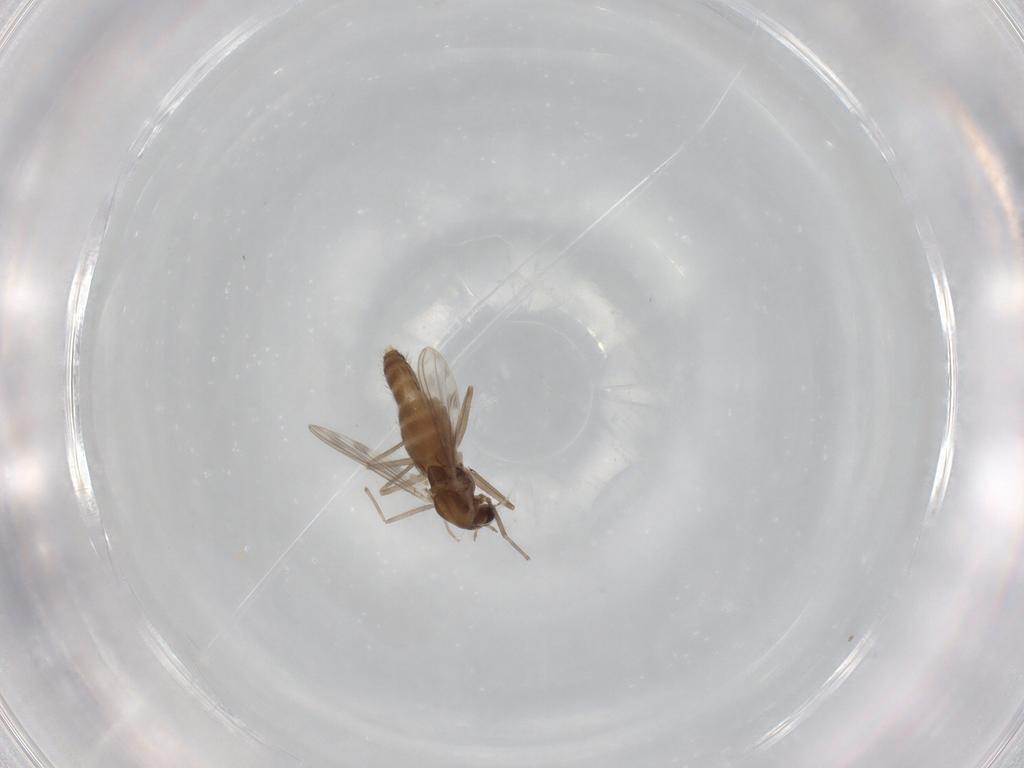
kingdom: Animalia
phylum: Arthropoda
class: Insecta
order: Diptera
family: Chironomidae
